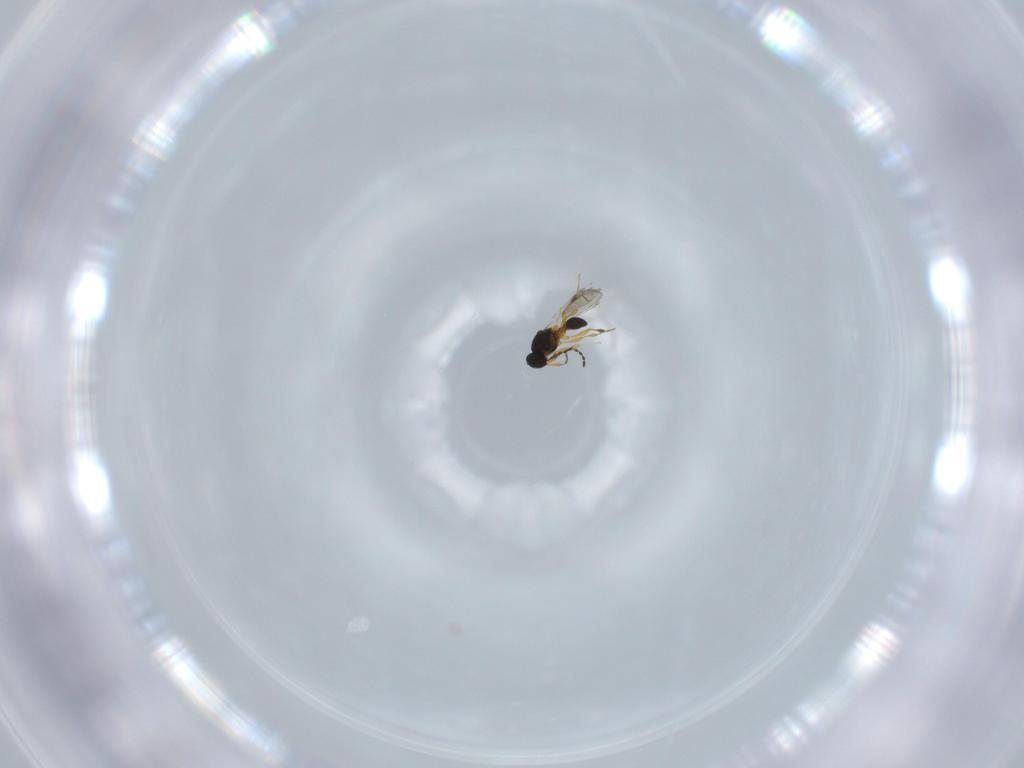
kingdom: Animalia
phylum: Arthropoda
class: Insecta
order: Hymenoptera
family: Platygastridae
